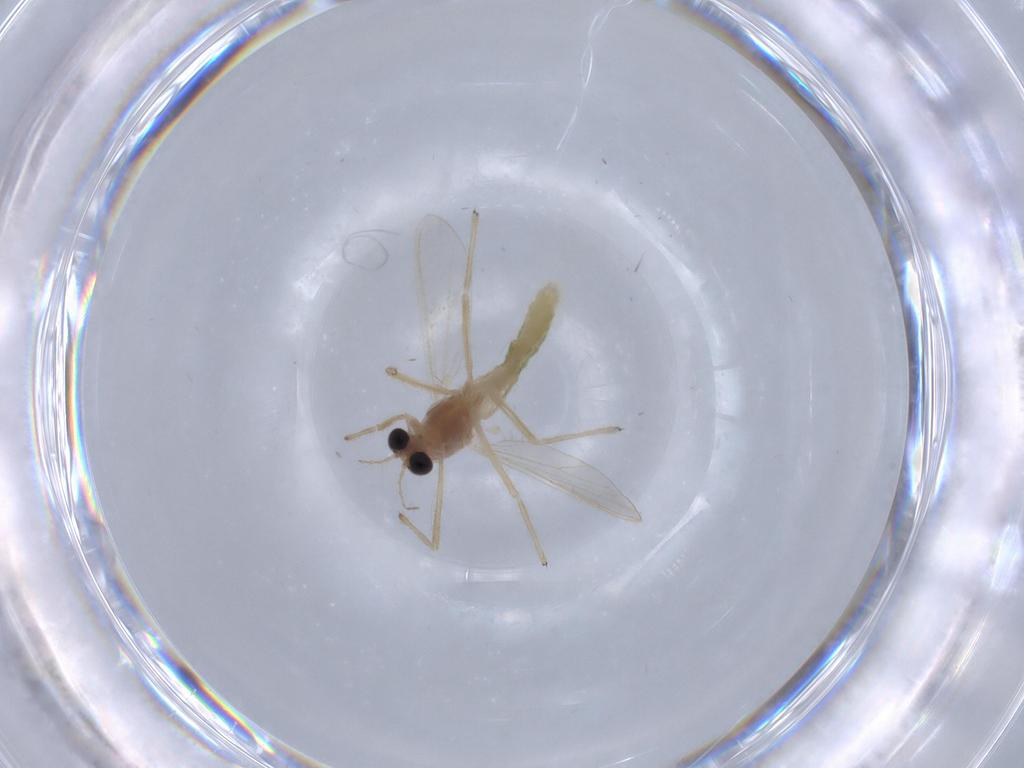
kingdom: Animalia
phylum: Arthropoda
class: Insecta
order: Diptera
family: Chironomidae
